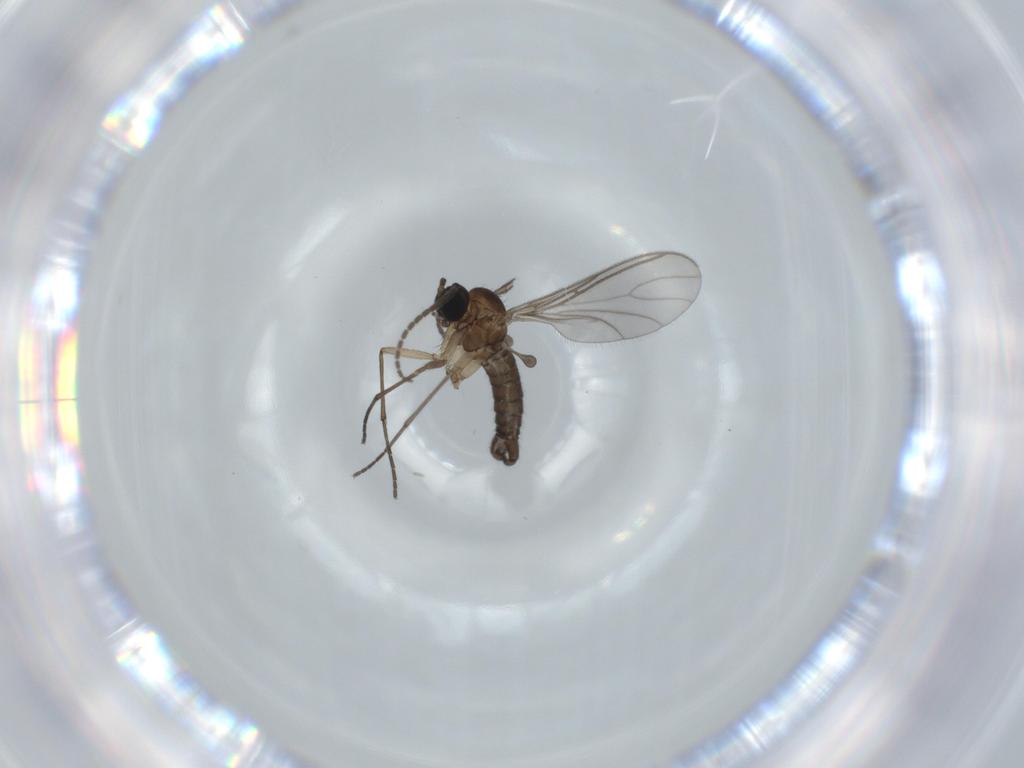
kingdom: Animalia
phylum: Arthropoda
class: Insecta
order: Diptera
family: Sciaridae
